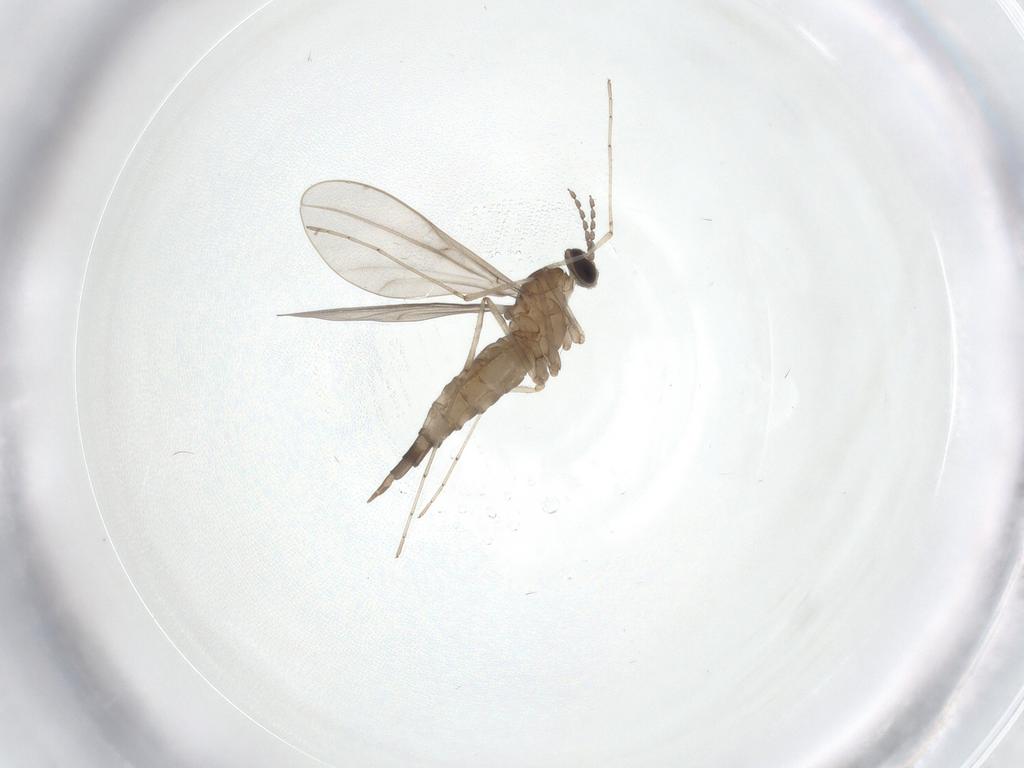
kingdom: Animalia
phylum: Arthropoda
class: Insecta
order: Diptera
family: Cecidomyiidae
